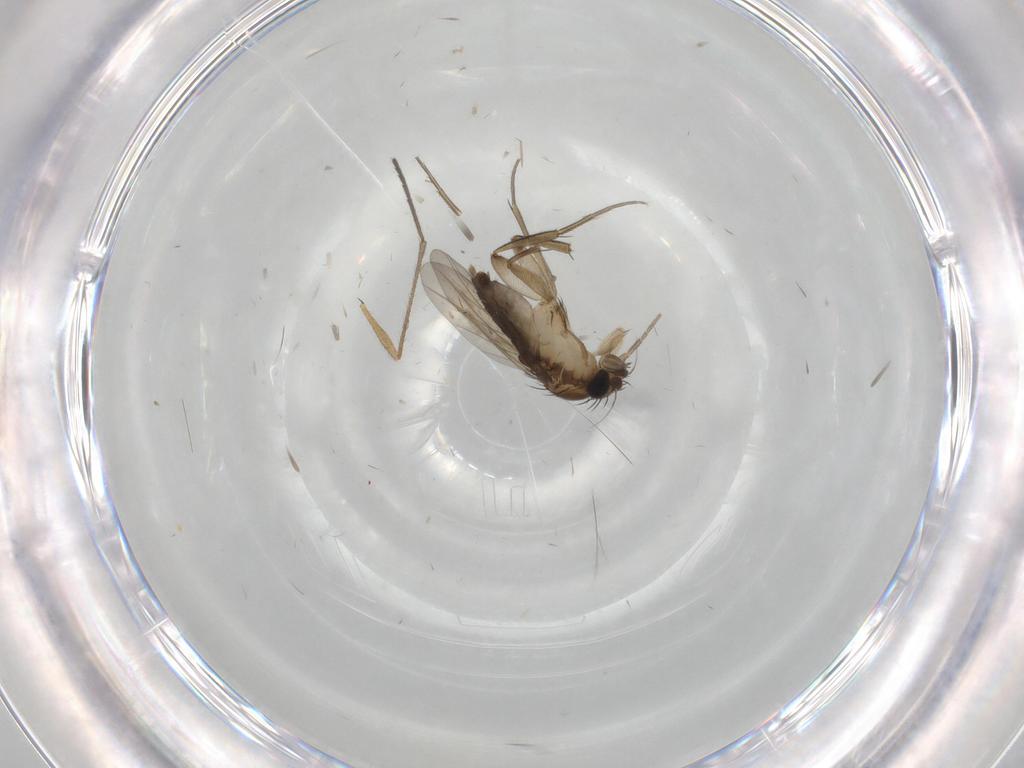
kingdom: Animalia
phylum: Arthropoda
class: Insecta
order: Diptera
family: Phoridae
